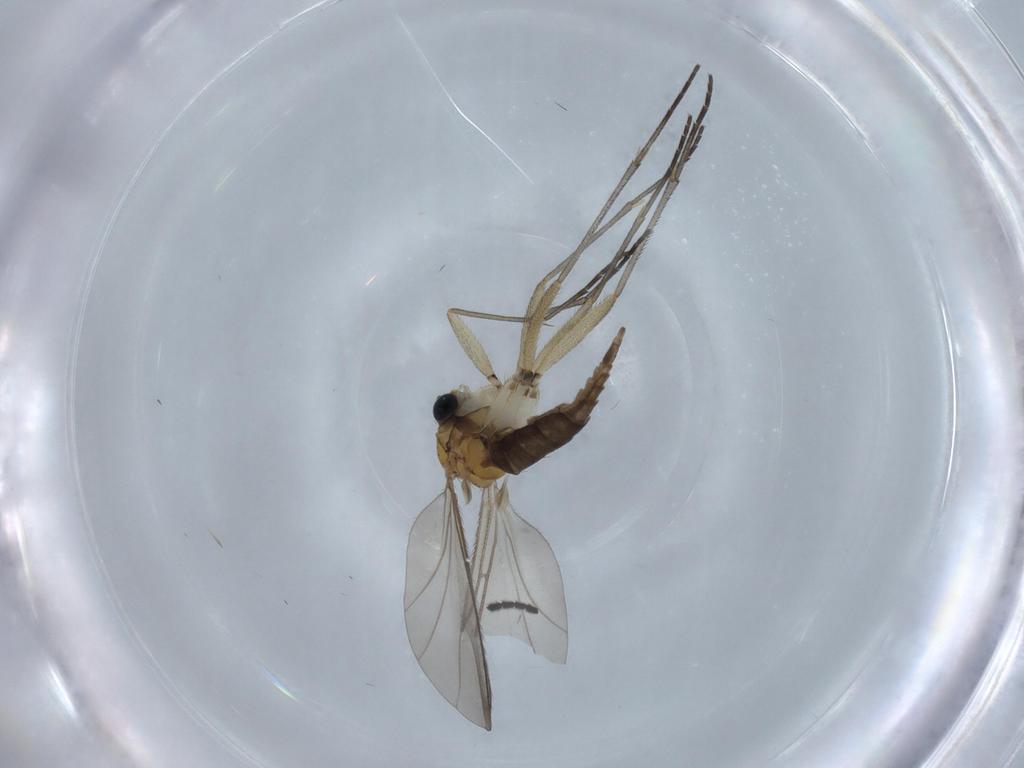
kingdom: Animalia
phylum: Arthropoda
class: Insecta
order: Diptera
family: Sciaridae
